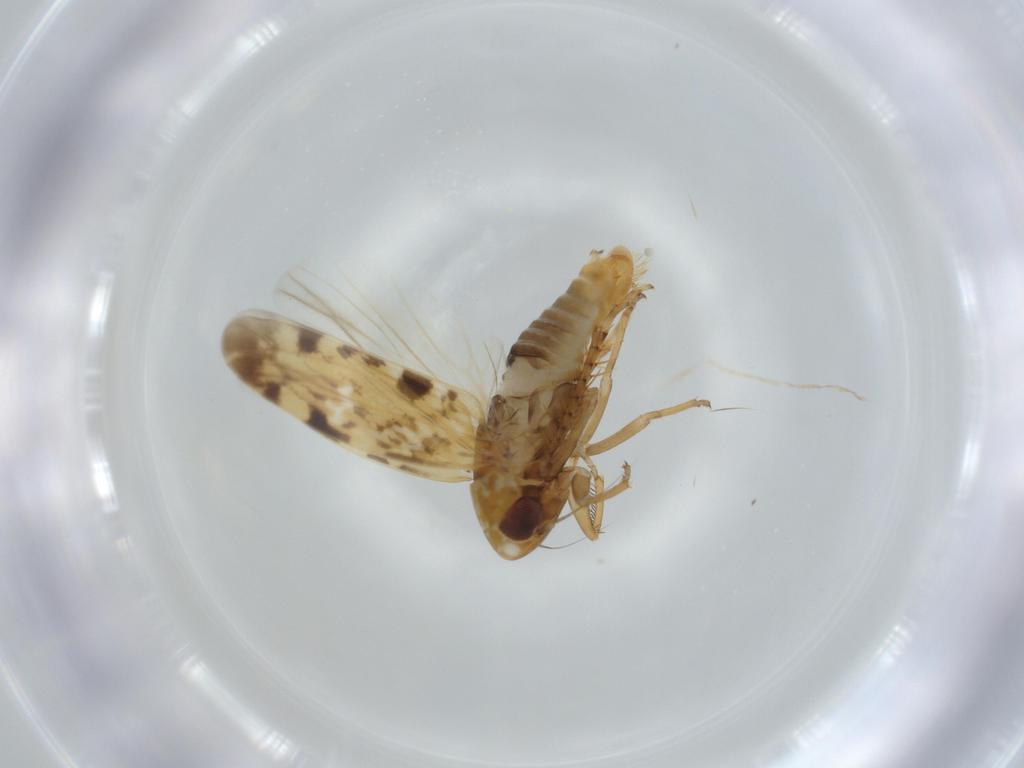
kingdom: Animalia
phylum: Arthropoda
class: Insecta
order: Hemiptera
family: Cicadellidae
